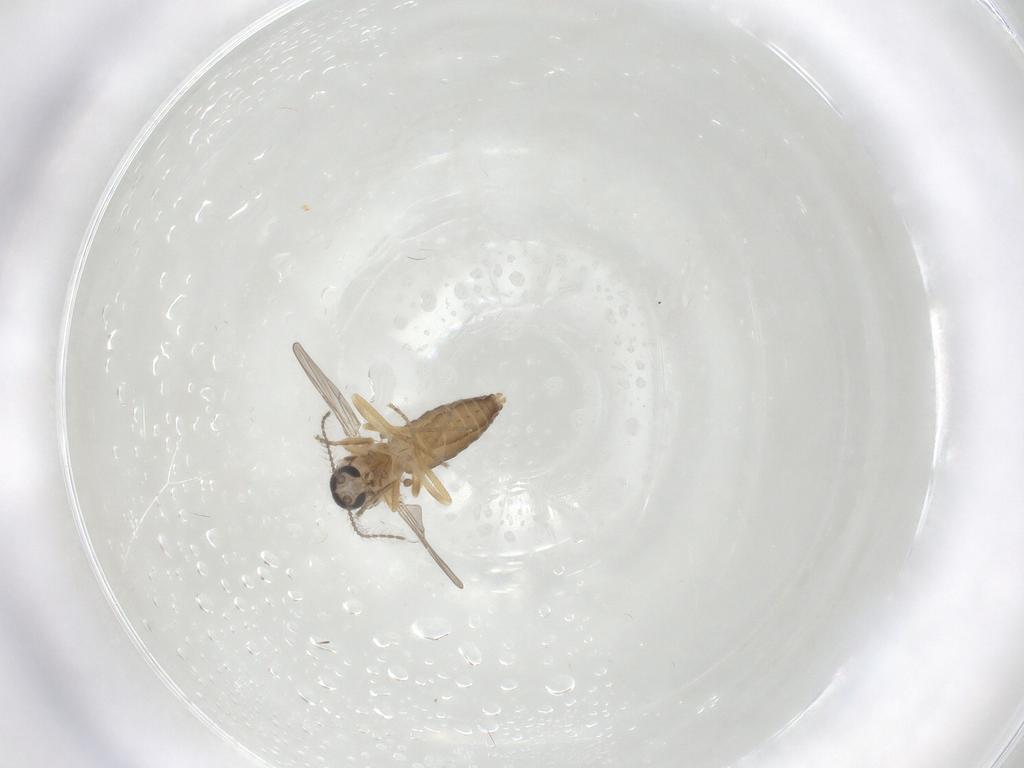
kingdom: Animalia
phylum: Arthropoda
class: Insecta
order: Diptera
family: Ceratopogonidae
